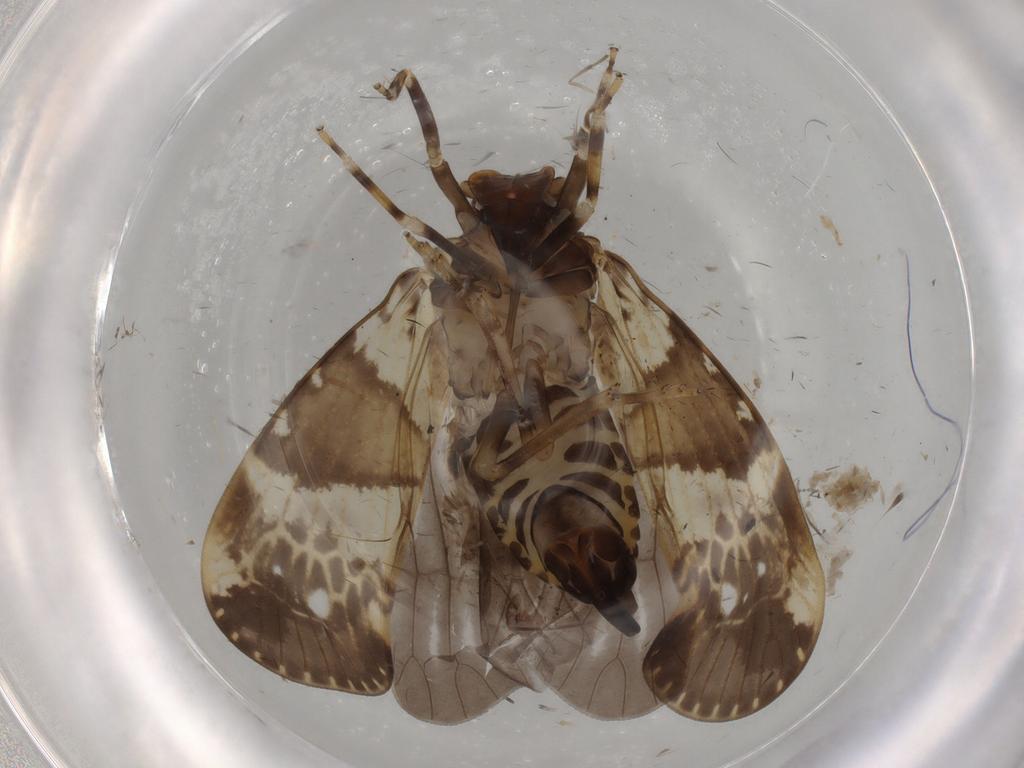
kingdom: Animalia
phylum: Arthropoda
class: Insecta
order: Hemiptera
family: Cixiidae
